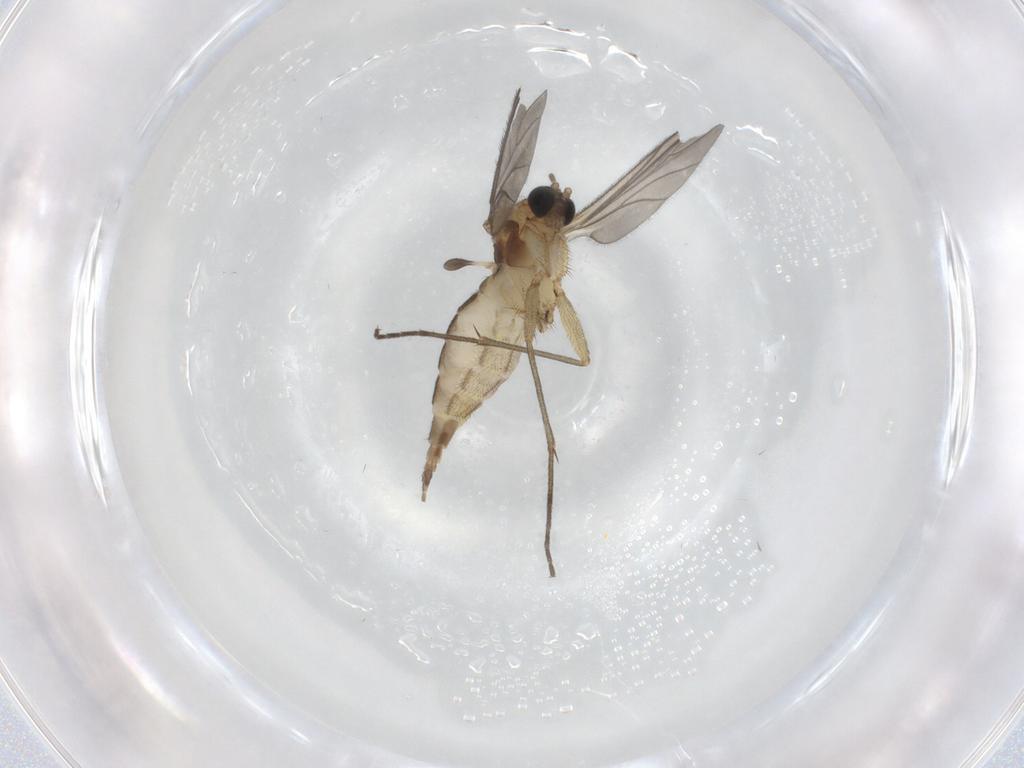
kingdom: Animalia
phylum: Arthropoda
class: Insecta
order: Diptera
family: Sciaridae
